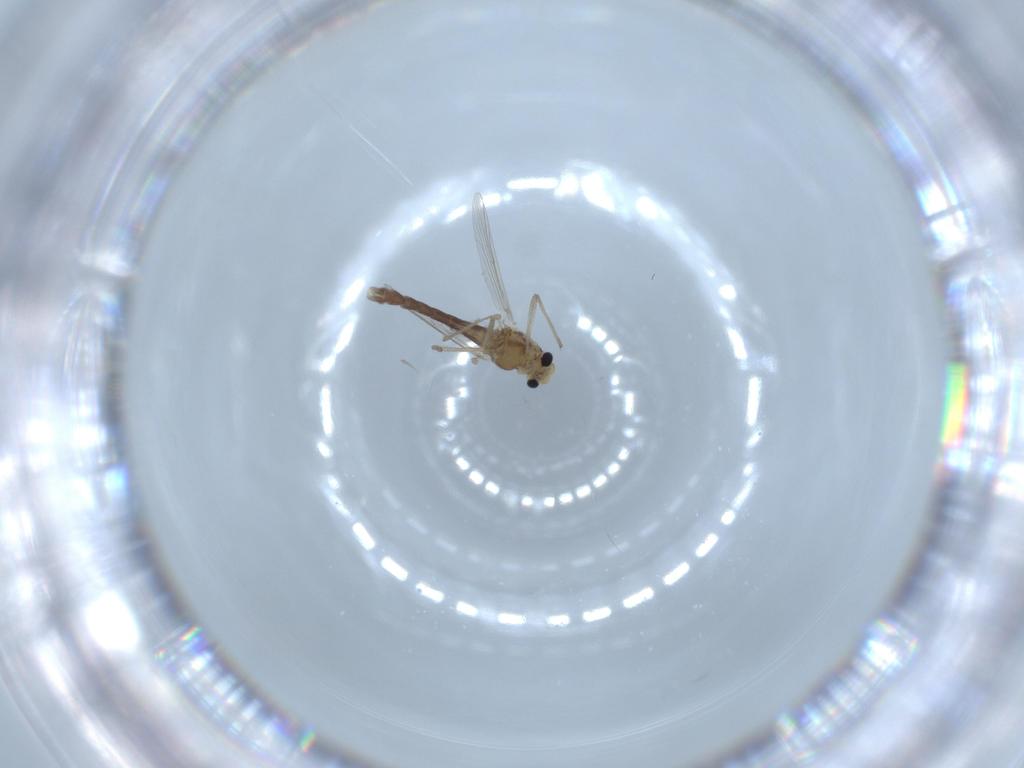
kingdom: Animalia
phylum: Arthropoda
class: Insecta
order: Diptera
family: Chironomidae
